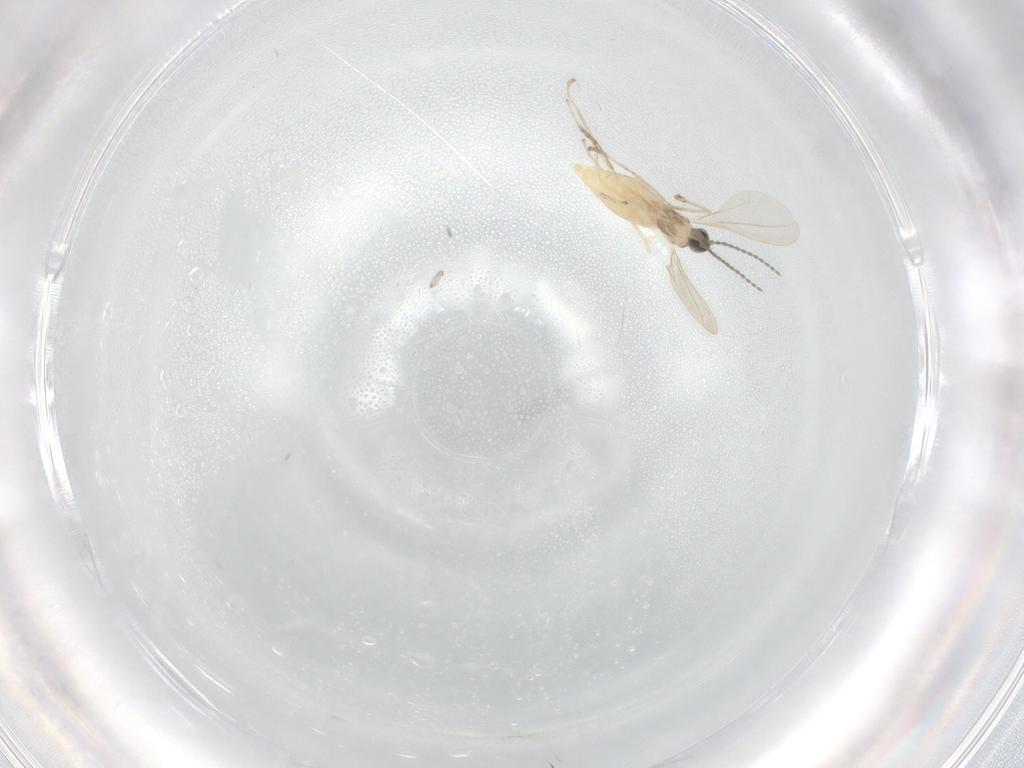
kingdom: Animalia
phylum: Arthropoda
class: Insecta
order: Diptera
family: Cecidomyiidae
